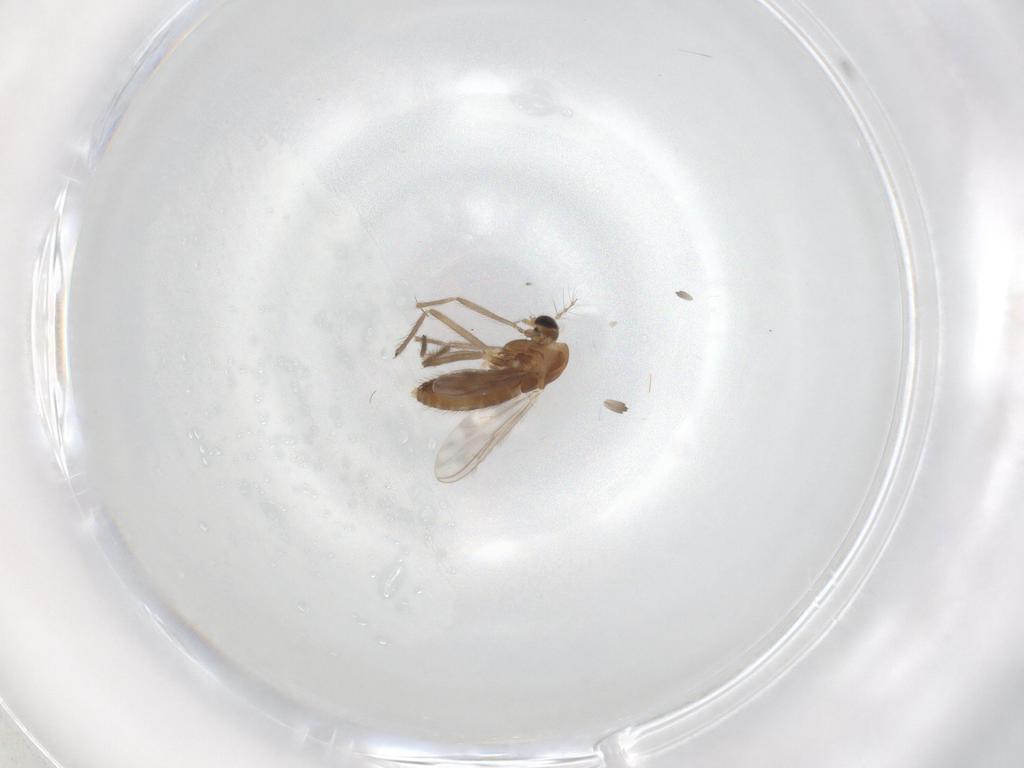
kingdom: Animalia
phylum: Arthropoda
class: Insecta
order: Diptera
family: Chironomidae
